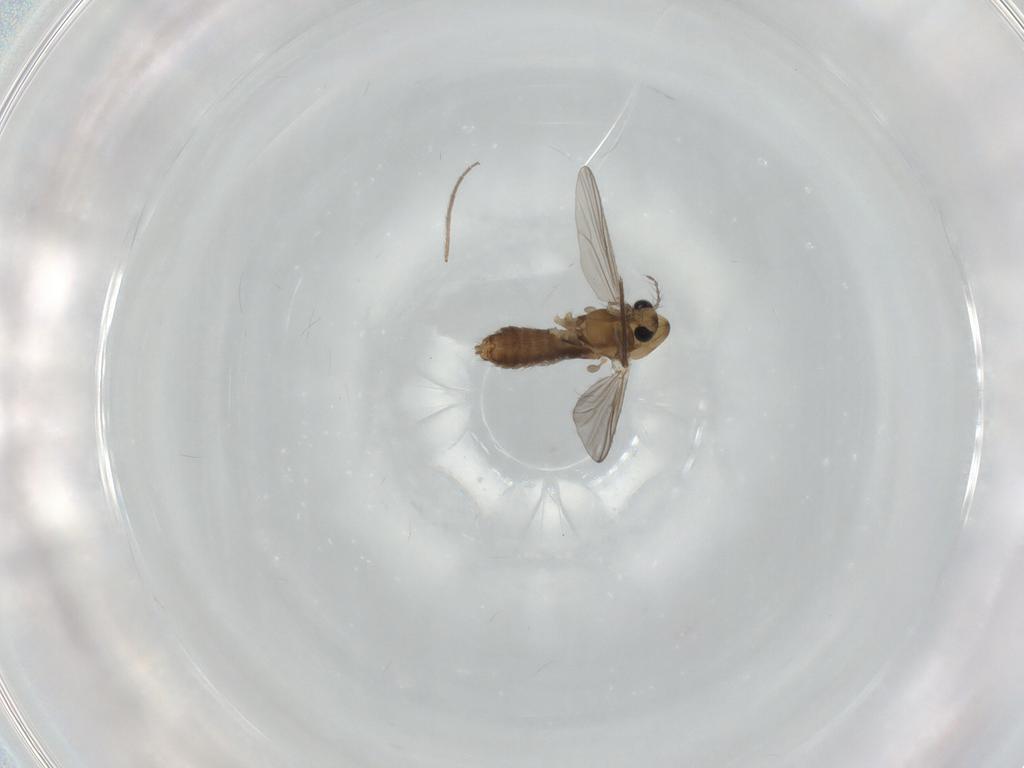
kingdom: Animalia
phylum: Arthropoda
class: Insecta
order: Diptera
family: Chironomidae
